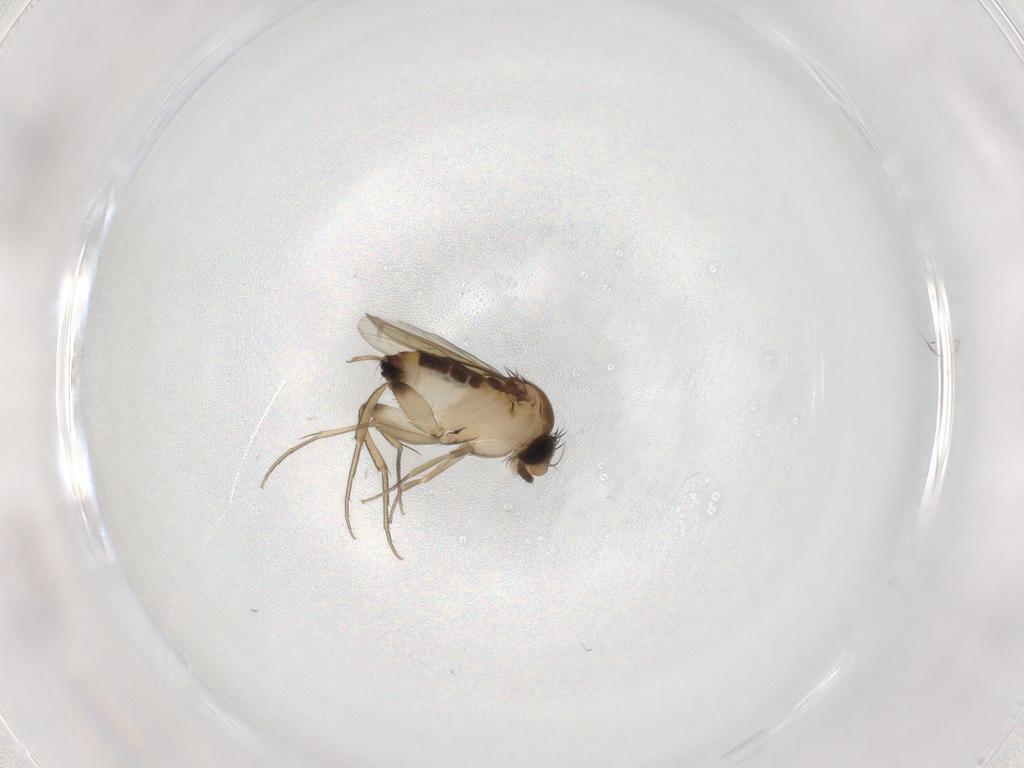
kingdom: Animalia
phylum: Arthropoda
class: Insecta
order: Diptera
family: Phoridae
